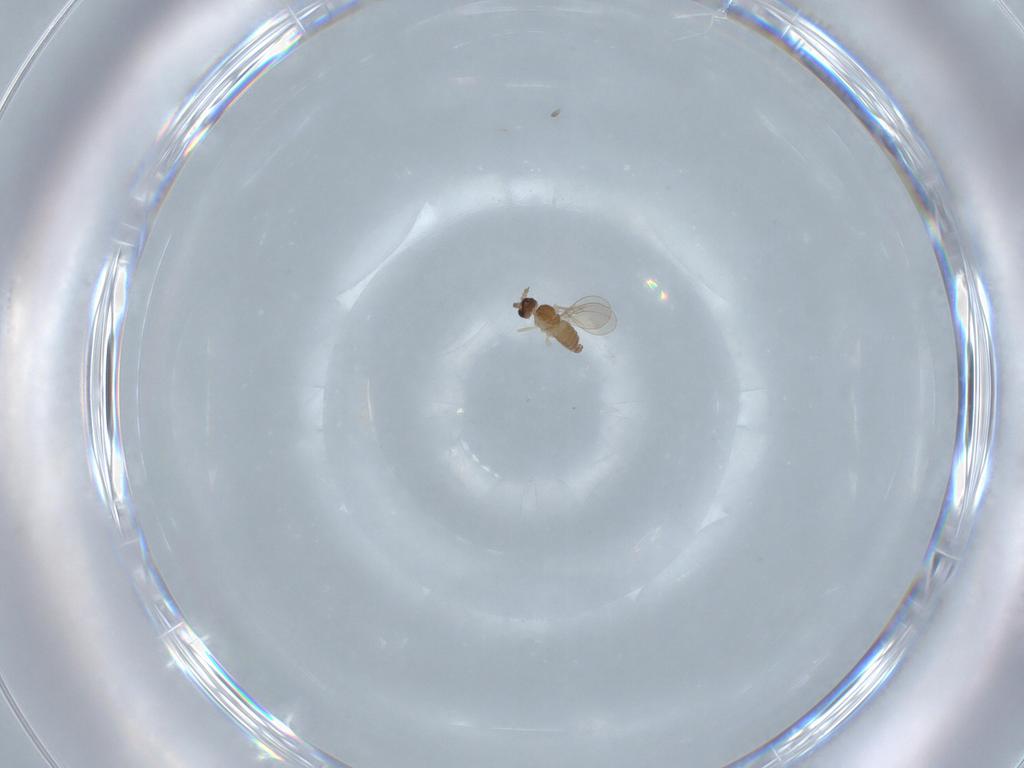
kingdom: Animalia
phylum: Arthropoda
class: Insecta
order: Diptera
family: Cecidomyiidae
